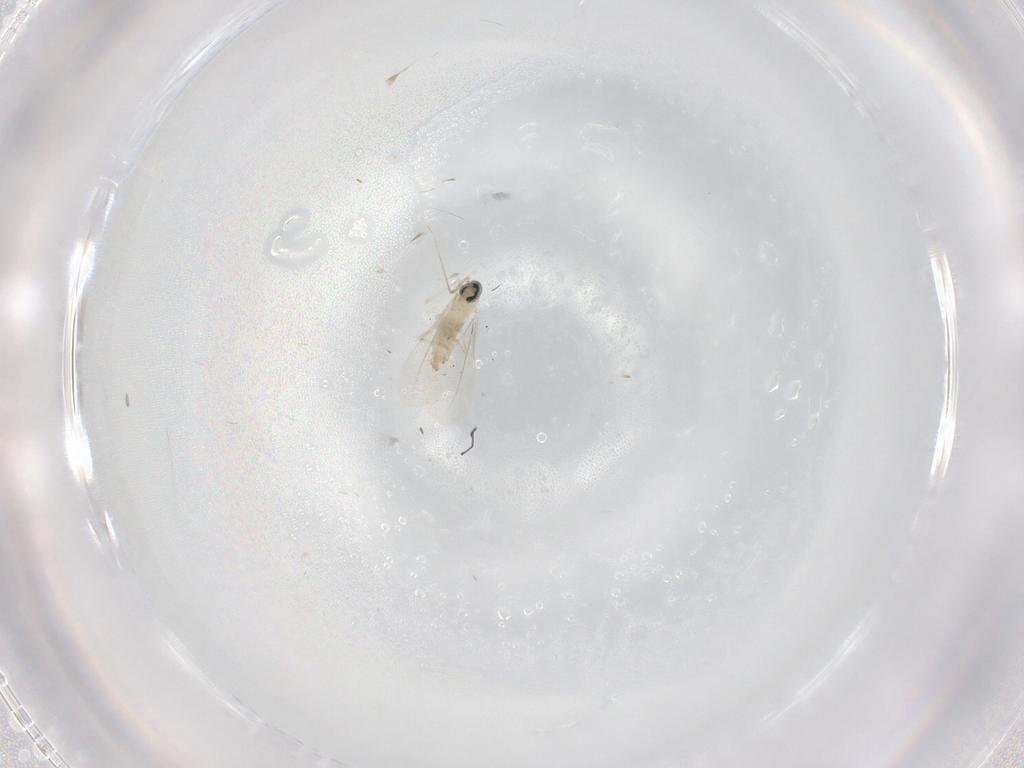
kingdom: Animalia
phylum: Arthropoda
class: Insecta
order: Diptera
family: Cecidomyiidae
